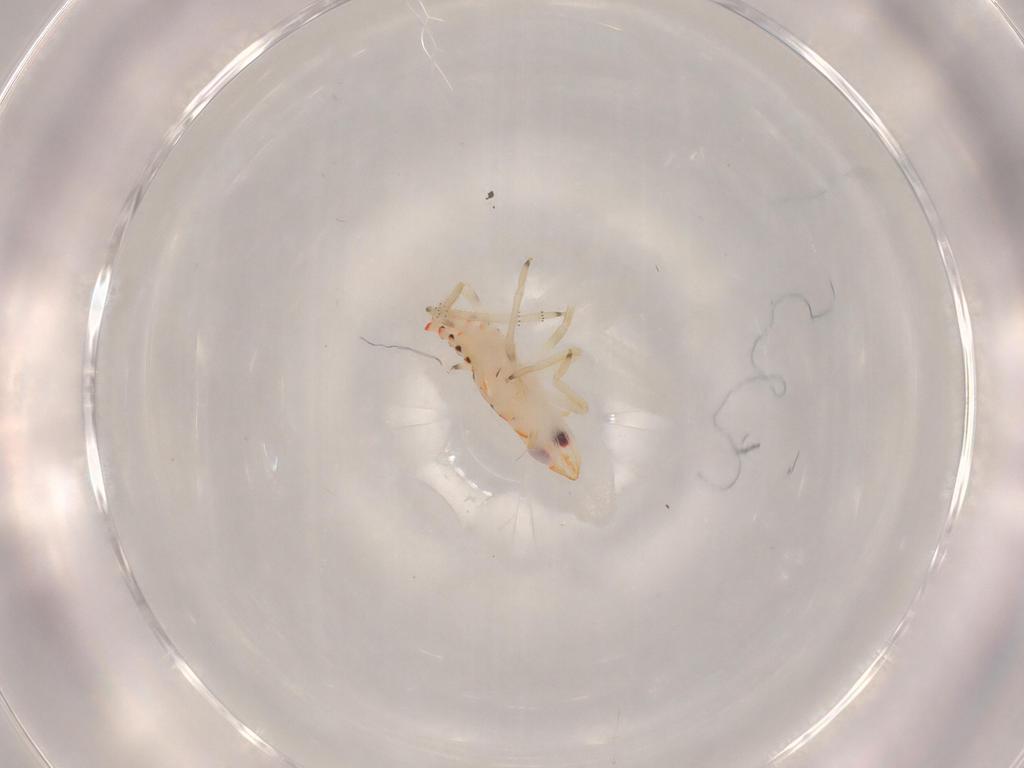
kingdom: Animalia
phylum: Arthropoda
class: Insecta
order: Hemiptera
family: Tropiduchidae
